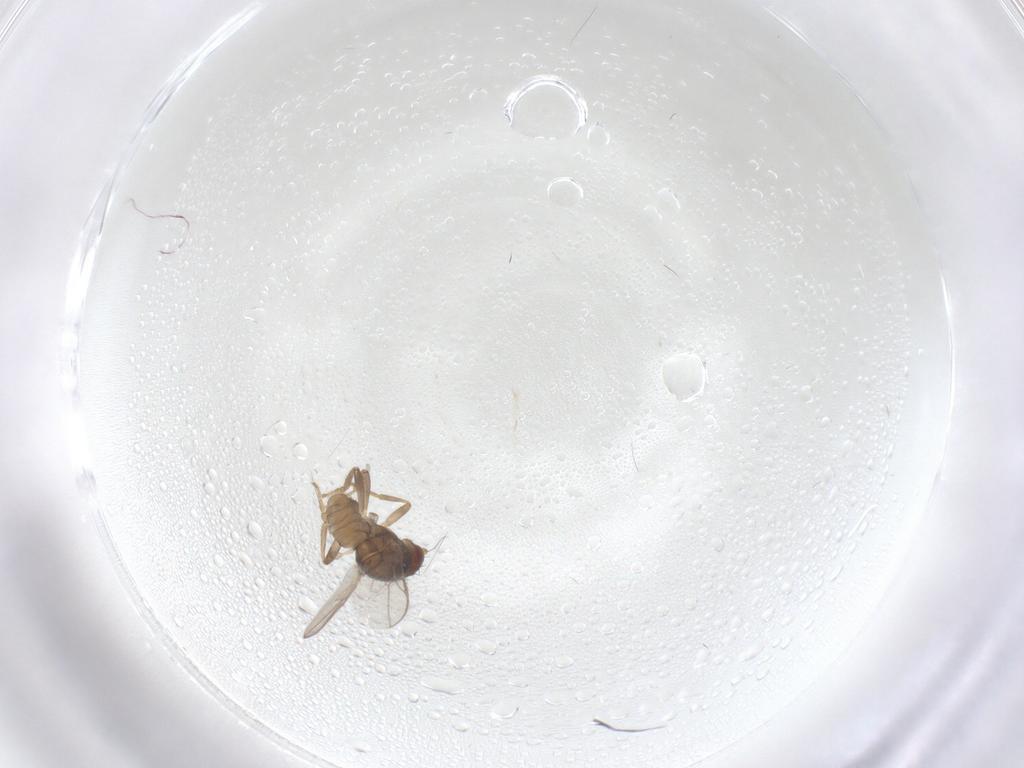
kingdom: Animalia
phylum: Arthropoda
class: Insecta
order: Diptera
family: Sphaeroceridae
